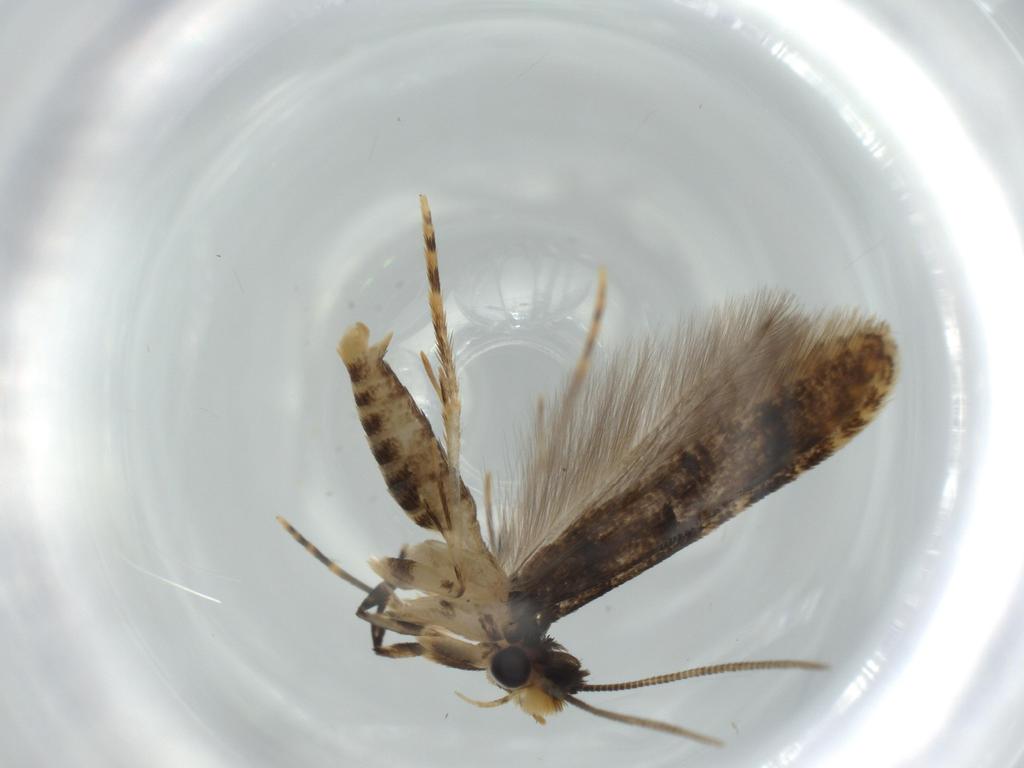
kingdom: Animalia
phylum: Arthropoda
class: Insecta
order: Lepidoptera
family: Tineidae
